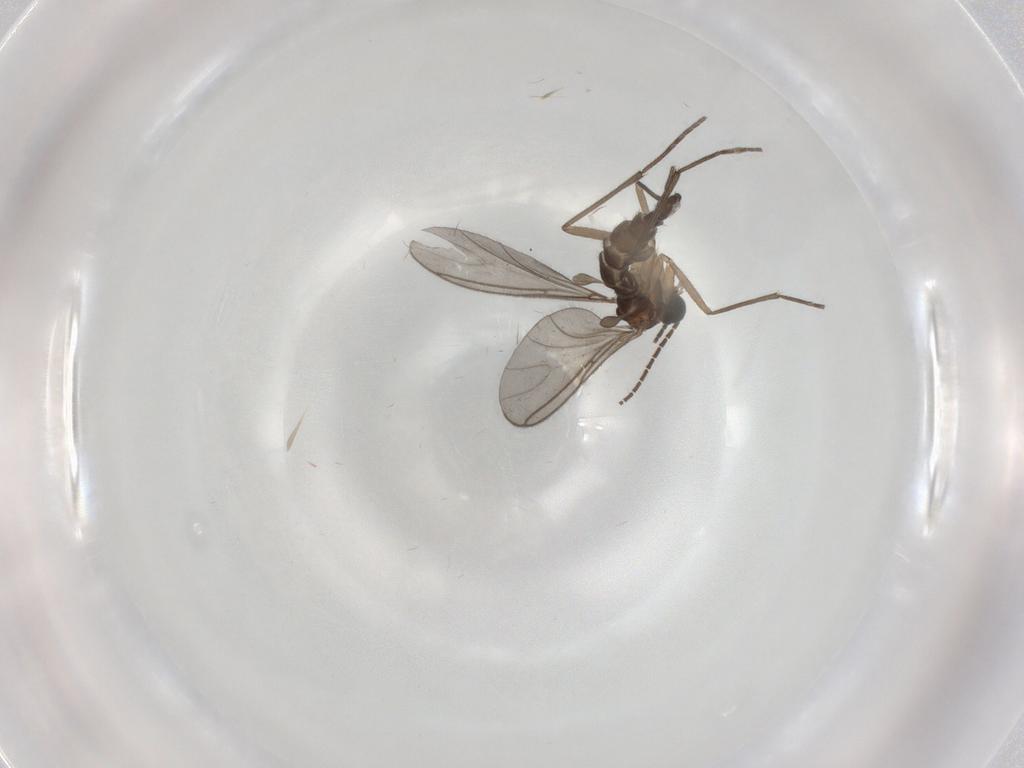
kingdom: Animalia
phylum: Arthropoda
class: Insecta
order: Diptera
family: Sciaridae
